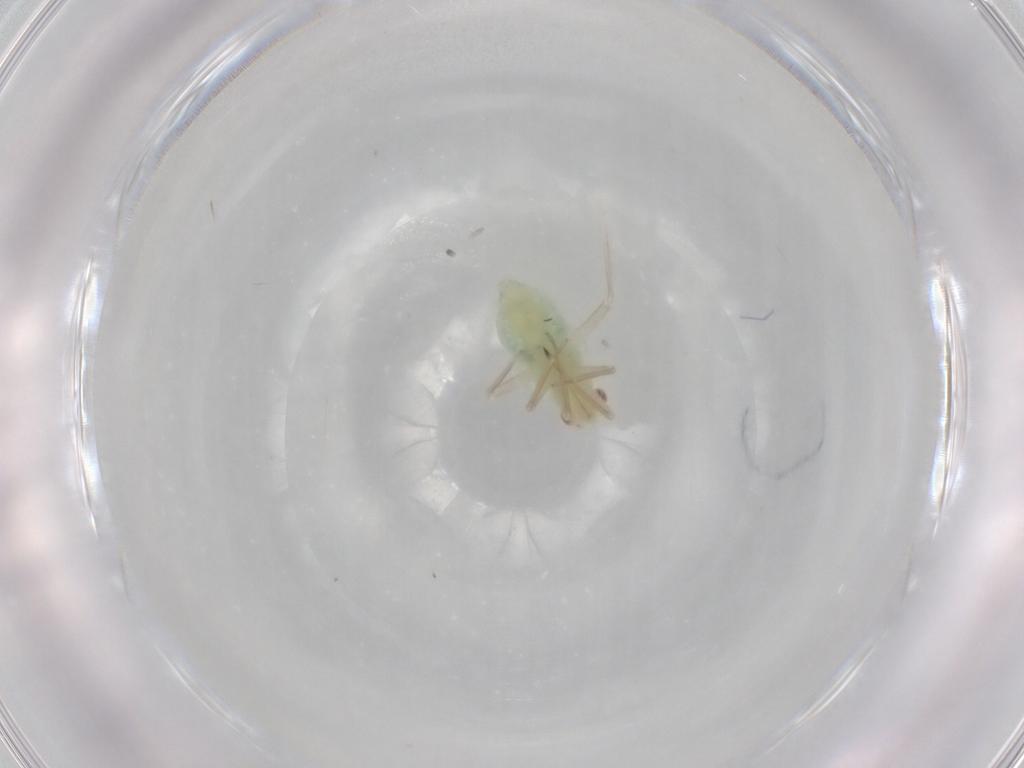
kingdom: Animalia
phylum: Arthropoda
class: Insecta
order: Hemiptera
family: Miridae
